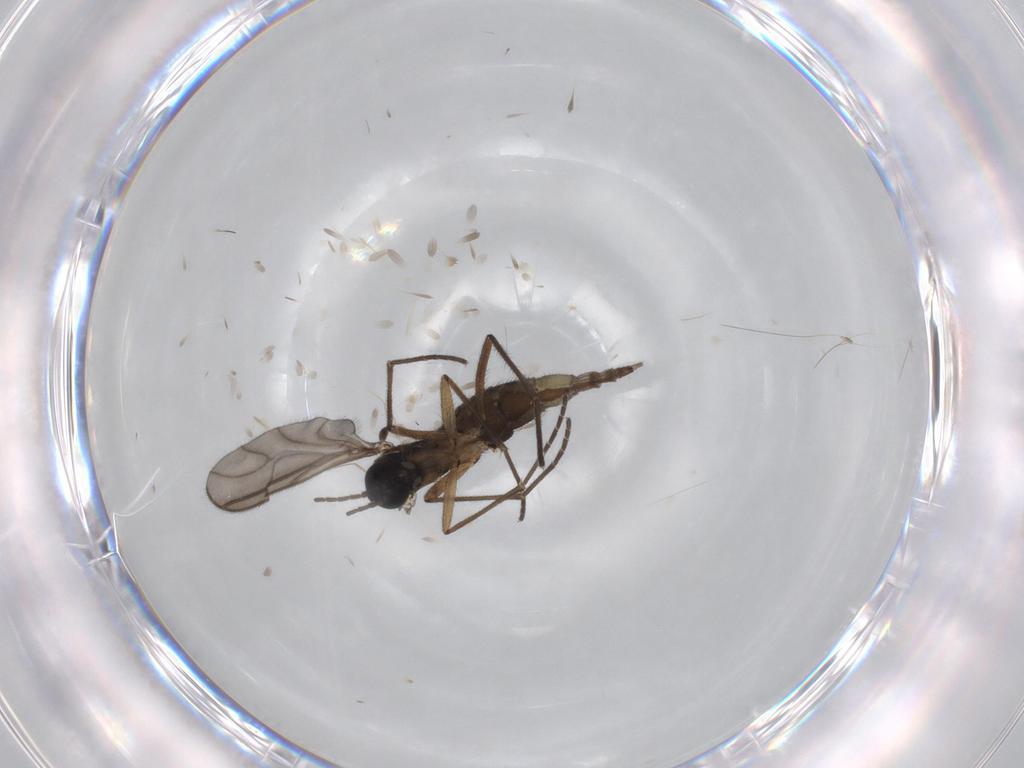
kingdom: Animalia
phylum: Arthropoda
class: Insecta
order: Diptera
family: Sciaridae
